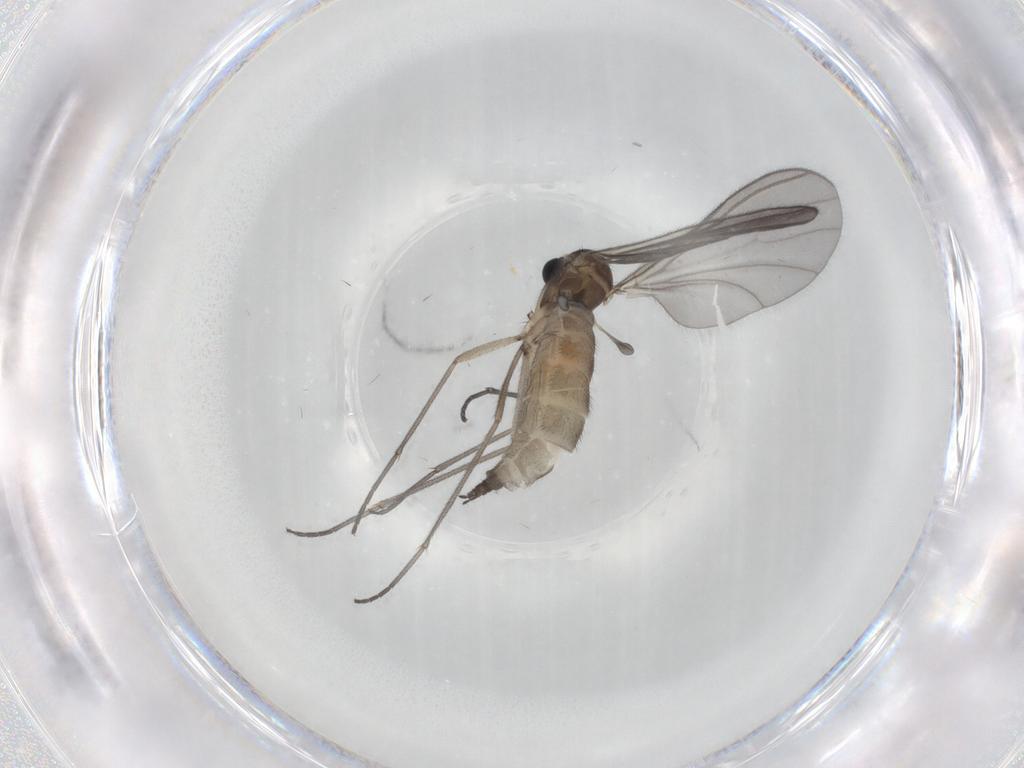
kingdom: Animalia
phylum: Arthropoda
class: Insecta
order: Diptera
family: Sciaridae
